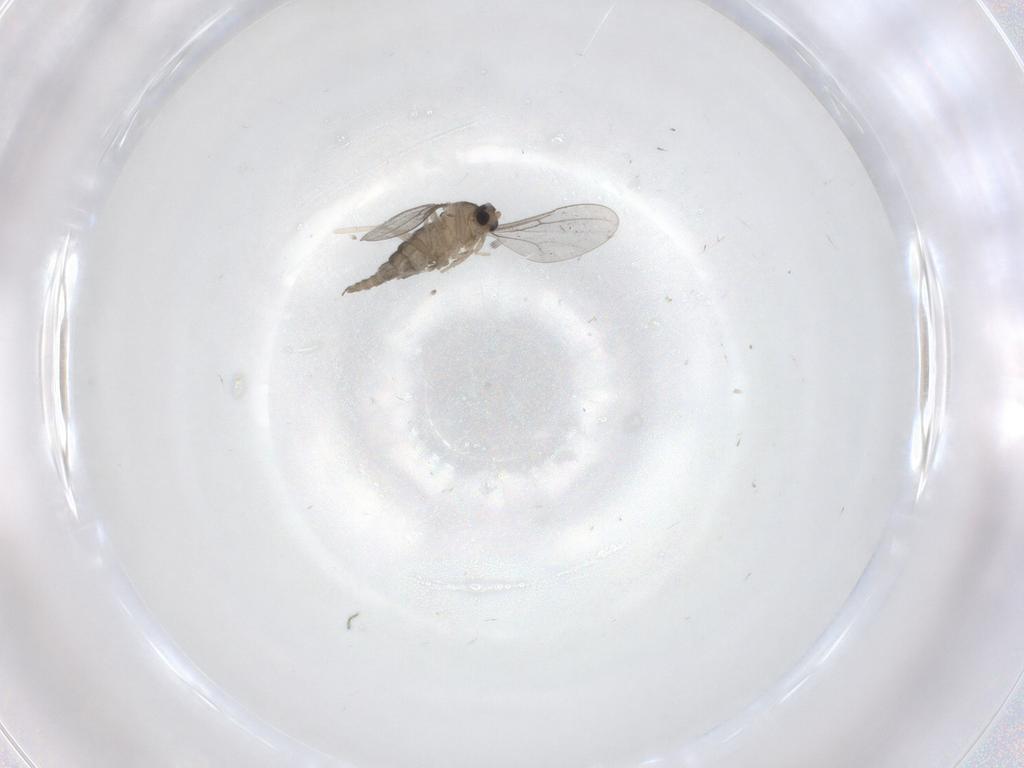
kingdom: Animalia
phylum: Arthropoda
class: Insecta
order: Diptera
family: Cecidomyiidae
